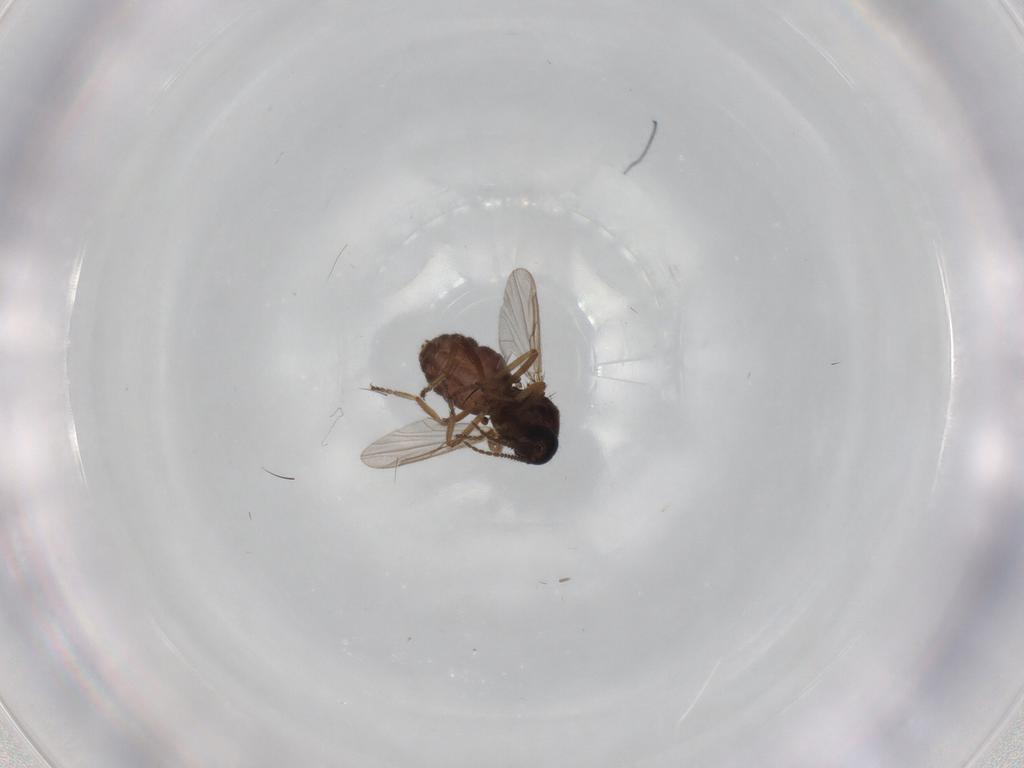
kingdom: Animalia
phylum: Arthropoda
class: Insecta
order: Diptera
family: Ceratopogonidae
